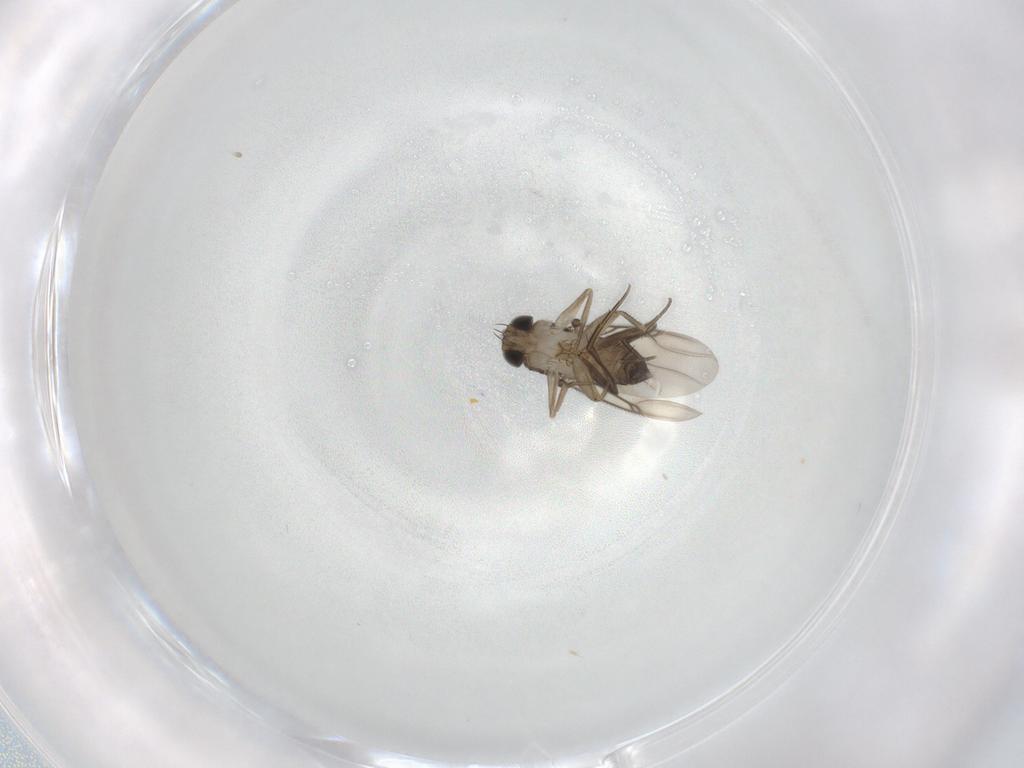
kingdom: Animalia
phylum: Arthropoda
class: Insecta
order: Diptera
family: Phoridae
